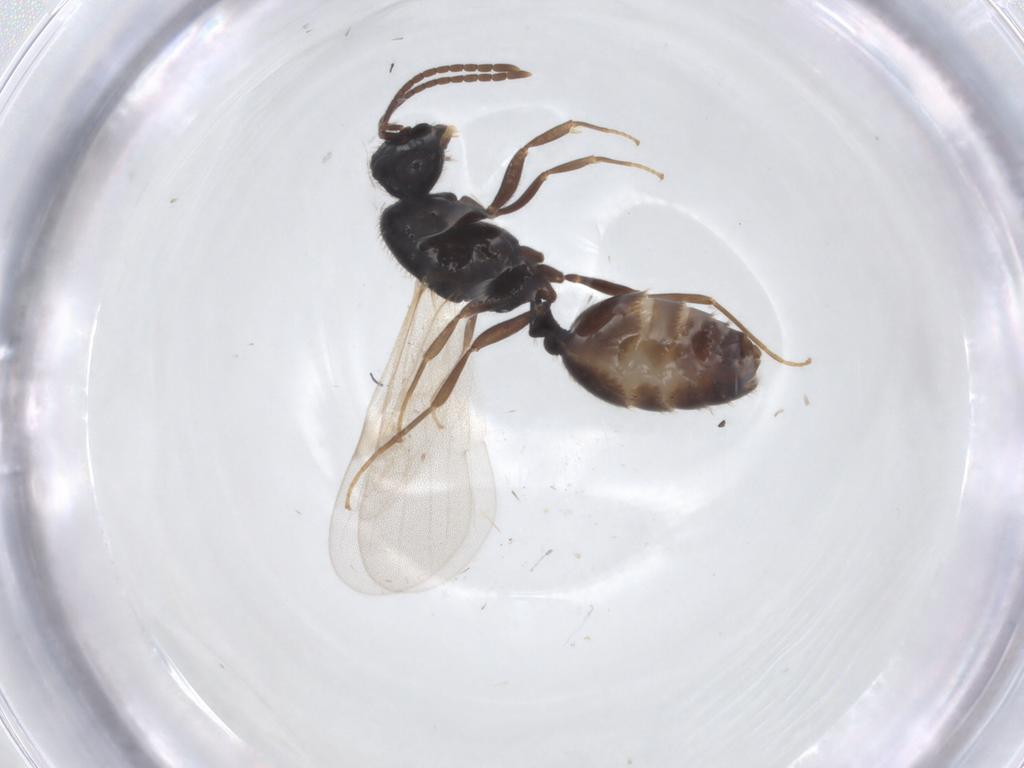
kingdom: Animalia
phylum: Arthropoda
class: Insecta
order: Hymenoptera
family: Formicidae
